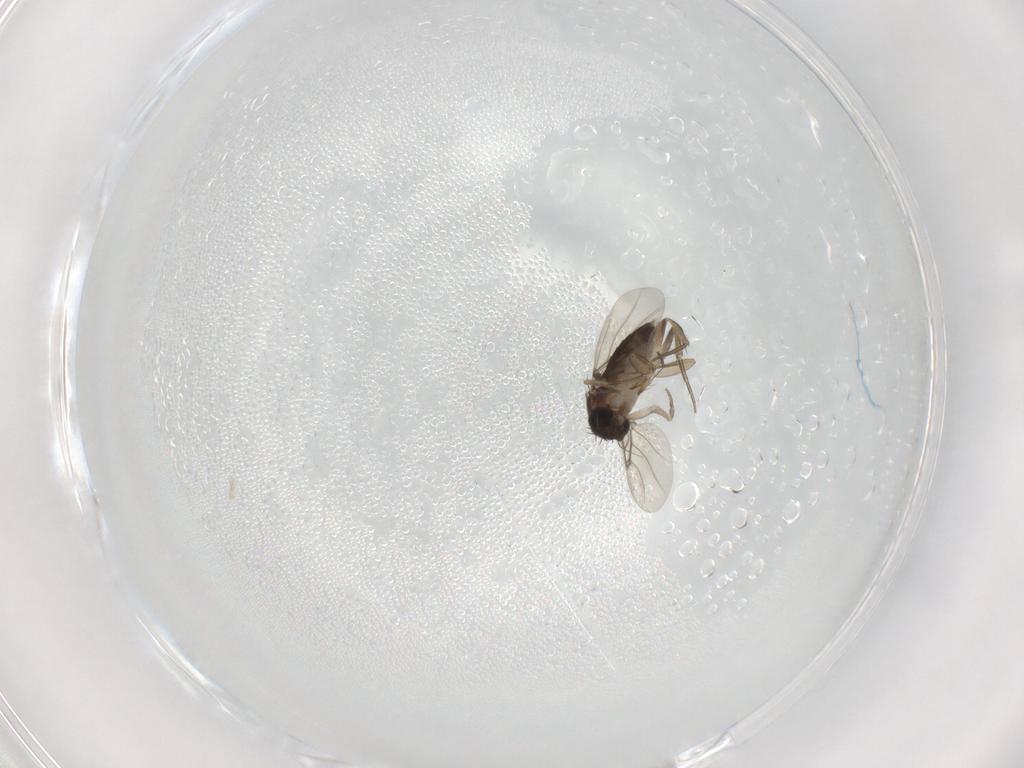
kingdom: Animalia
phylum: Arthropoda
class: Insecta
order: Diptera
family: Phoridae
